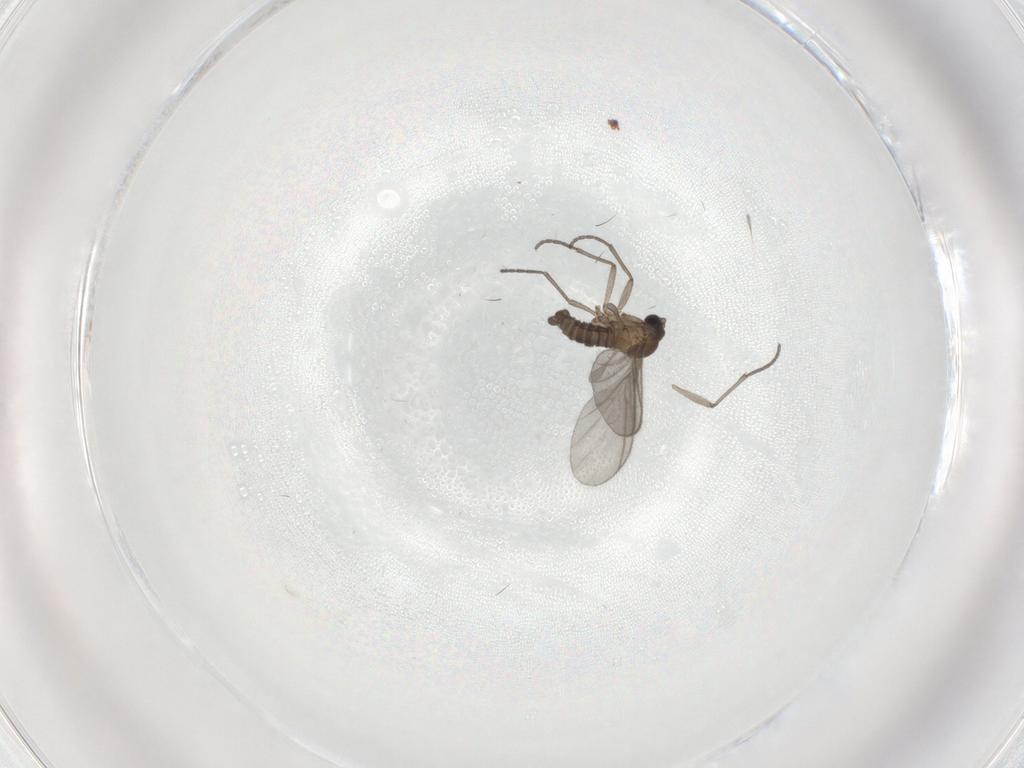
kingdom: Animalia
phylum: Arthropoda
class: Insecta
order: Diptera
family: Sciaridae
